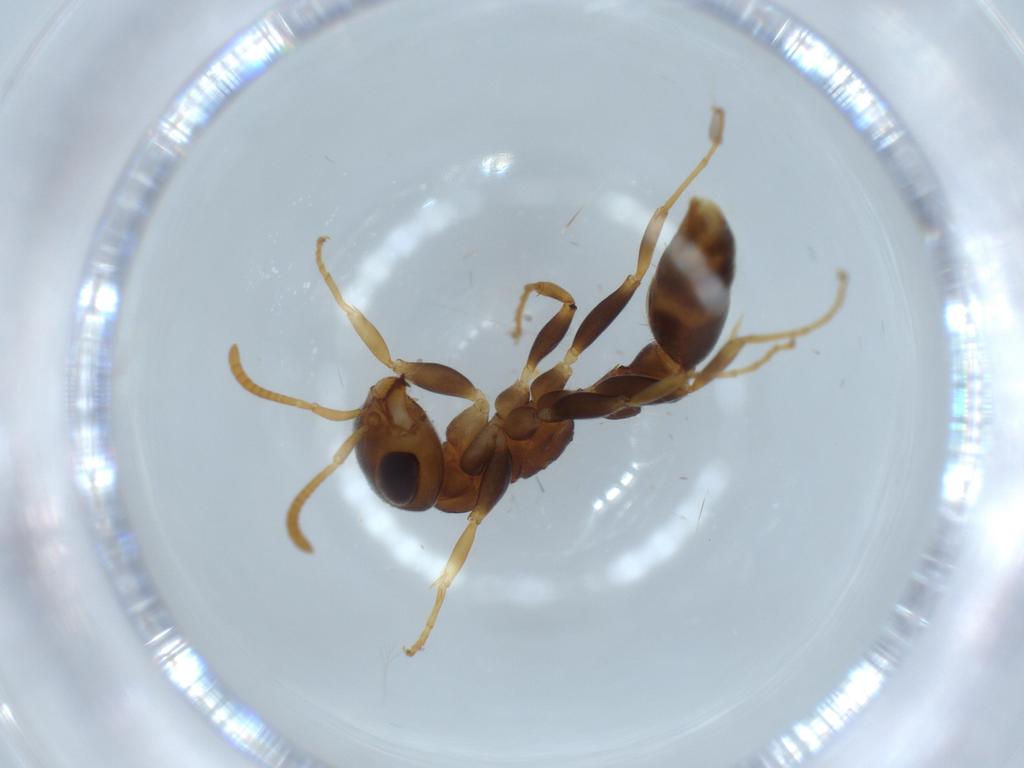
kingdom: Animalia
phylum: Arthropoda
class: Insecta
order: Hymenoptera
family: Formicidae
